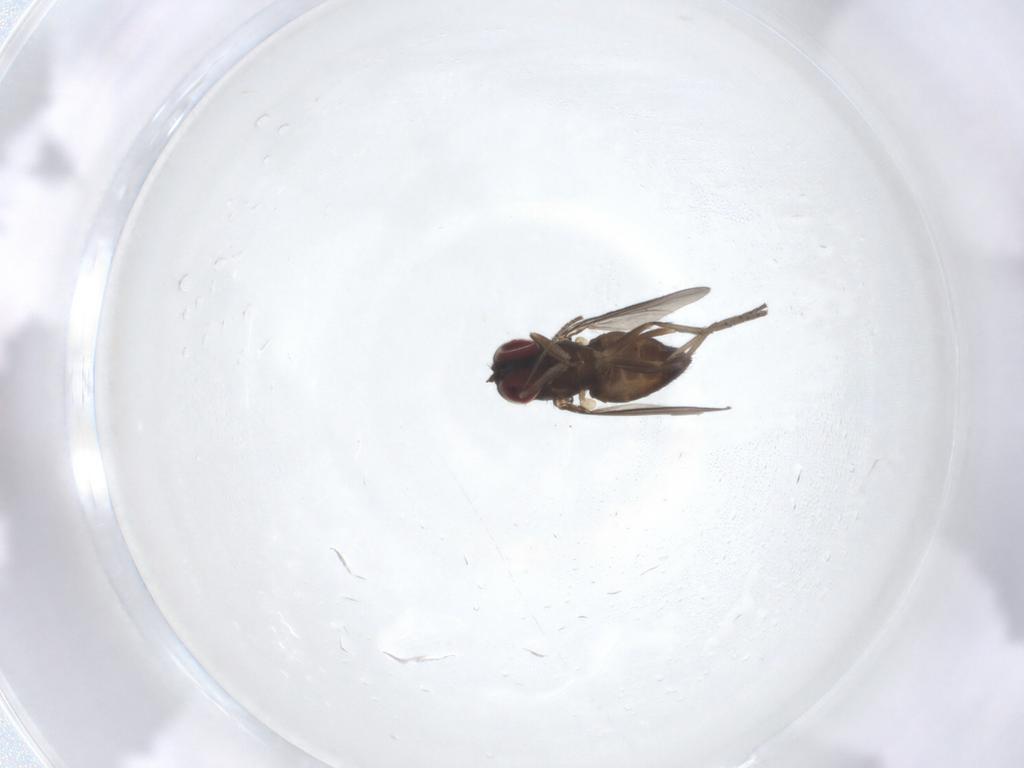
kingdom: Animalia
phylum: Arthropoda
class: Insecta
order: Diptera
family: Dolichopodidae
